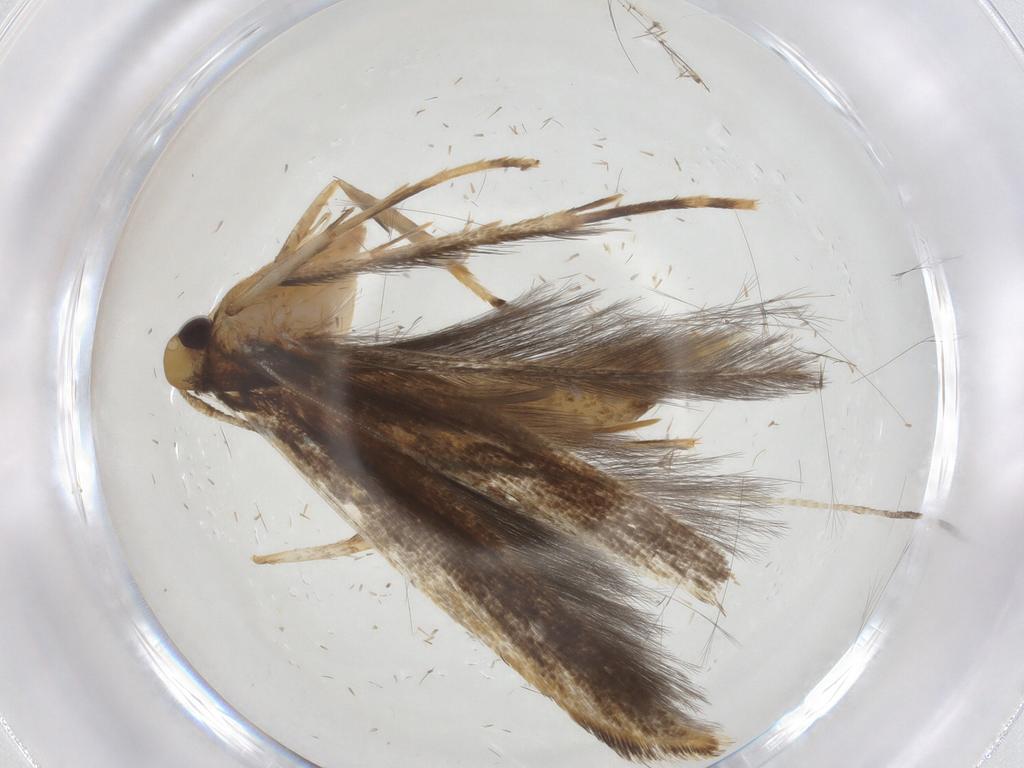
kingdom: Animalia
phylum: Arthropoda
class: Insecta
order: Lepidoptera
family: Pterolonchidae
